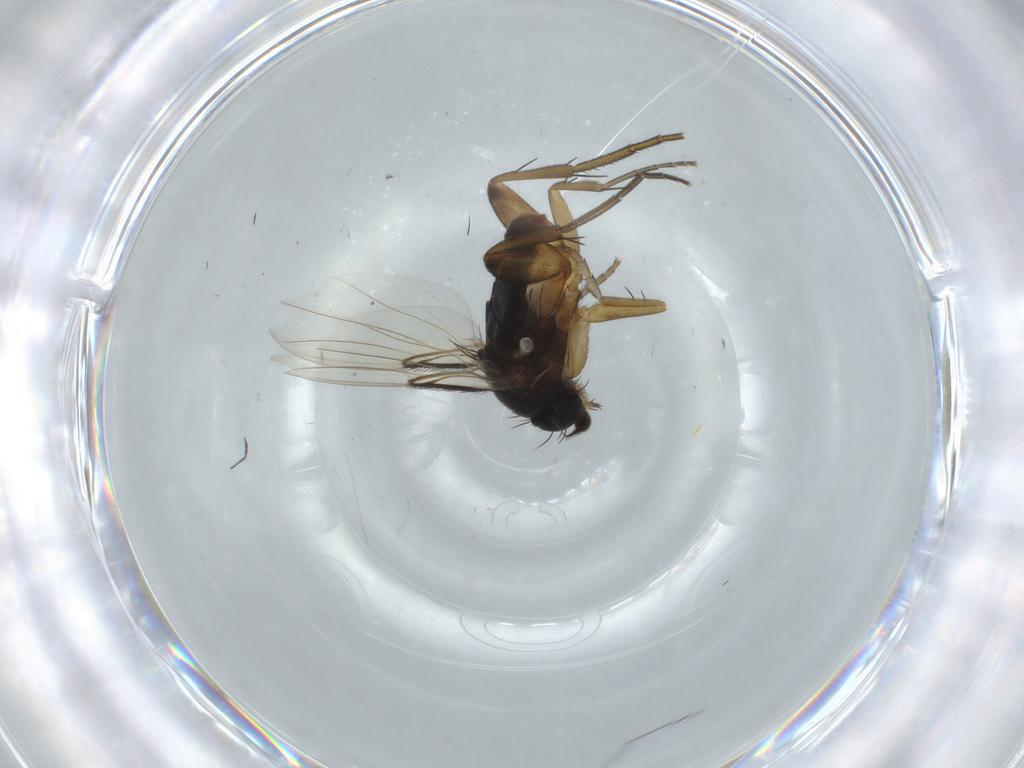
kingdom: Animalia
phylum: Arthropoda
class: Insecta
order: Diptera
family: Phoridae
